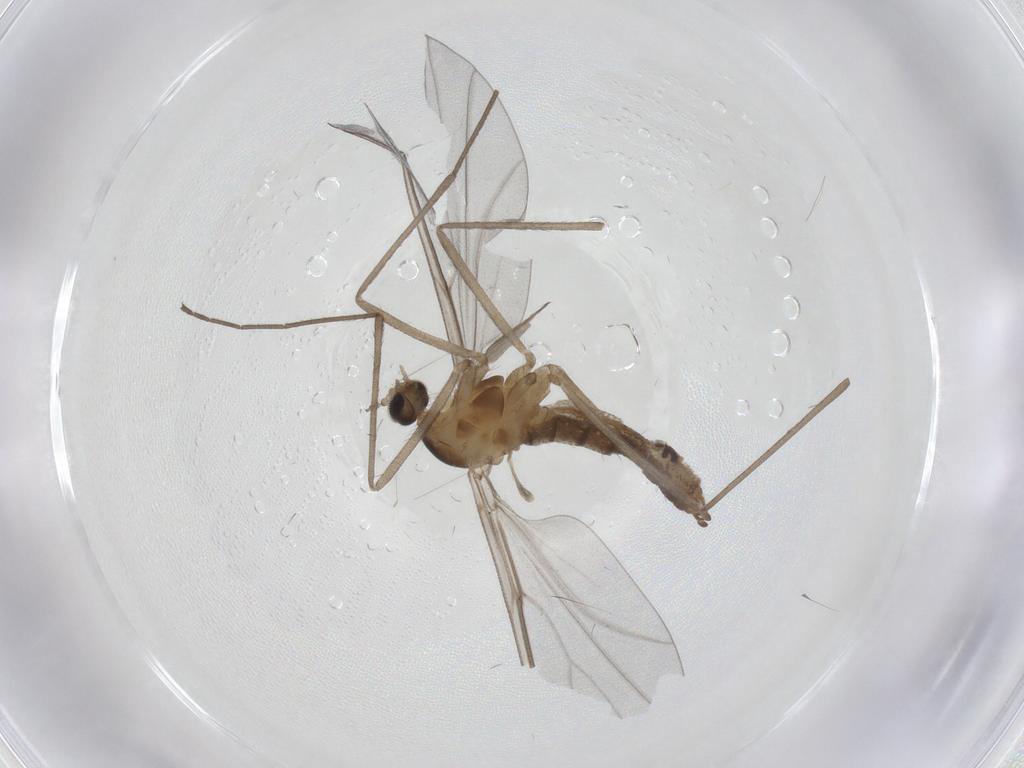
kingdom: Animalia
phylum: Arthropoda
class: Insecta
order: Diptera
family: Cecidomyiidae
